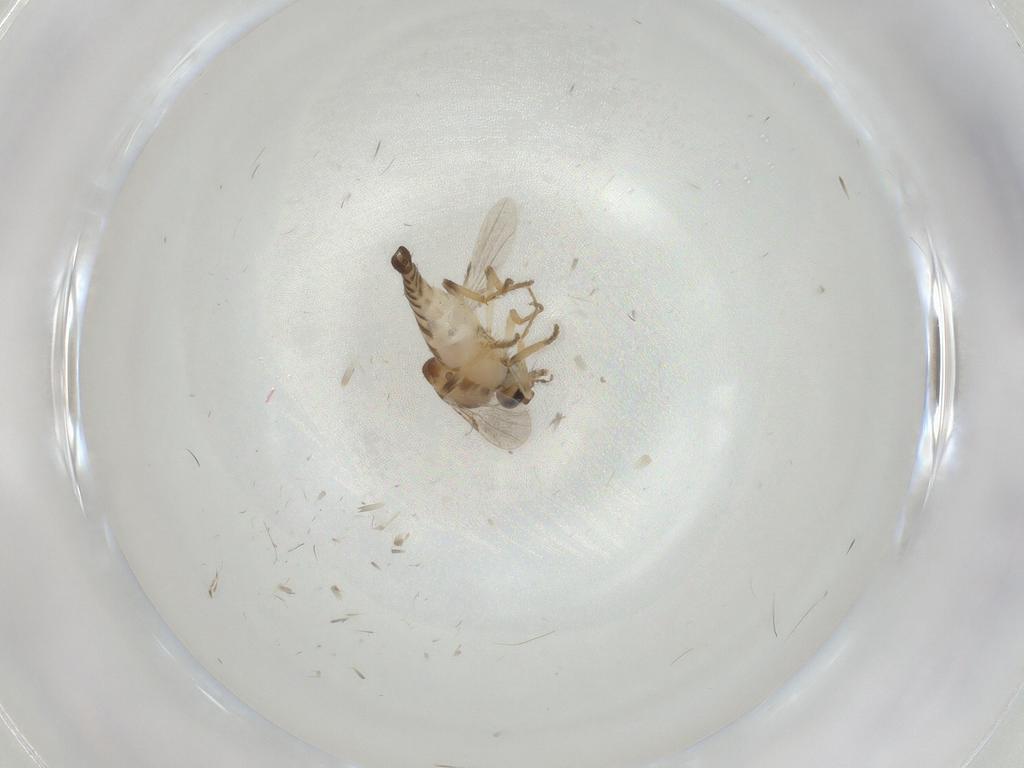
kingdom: Animalia
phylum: Arthropoda
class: Insecta
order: Diptera
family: Ceratopogonidae
